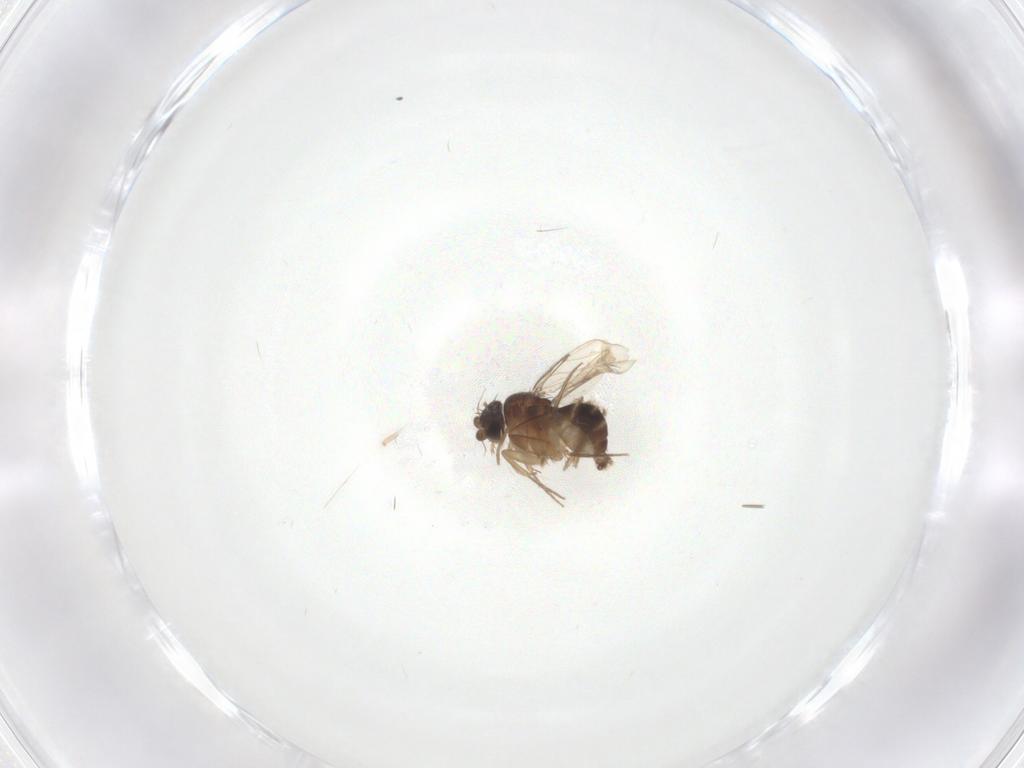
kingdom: Animalia
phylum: Arthropoda
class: Insecta
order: Diptera
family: Chironomidae
